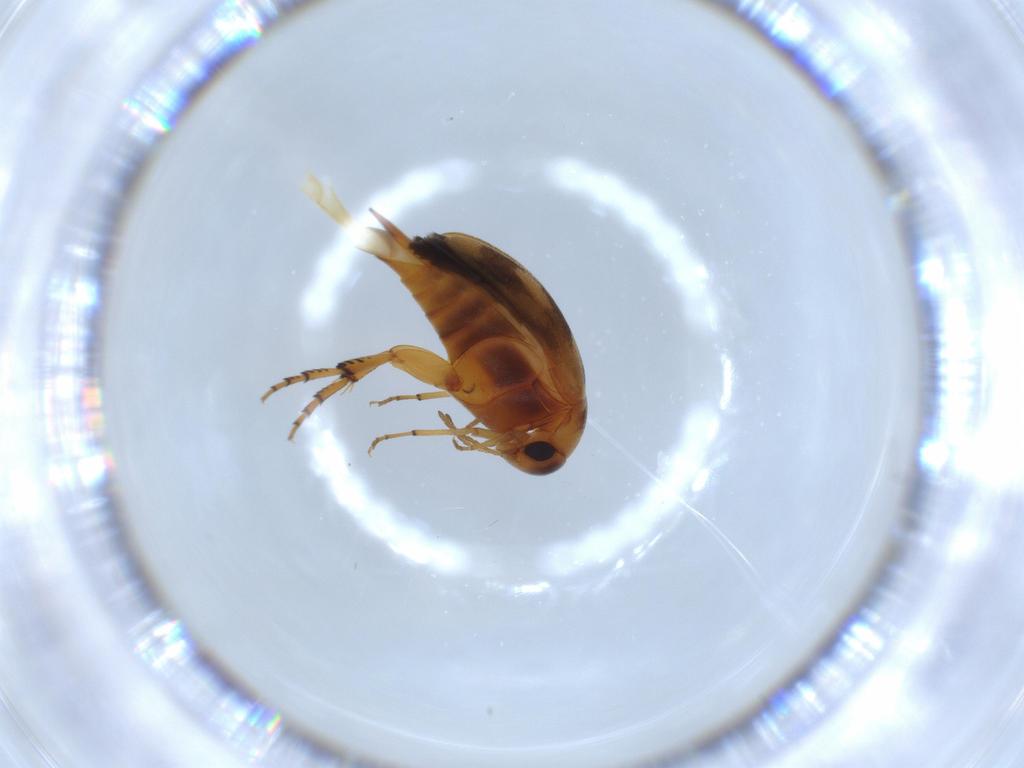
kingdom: Animalia
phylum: Arthropoda
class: Insecta
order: Coleoptera
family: Mordellidae
